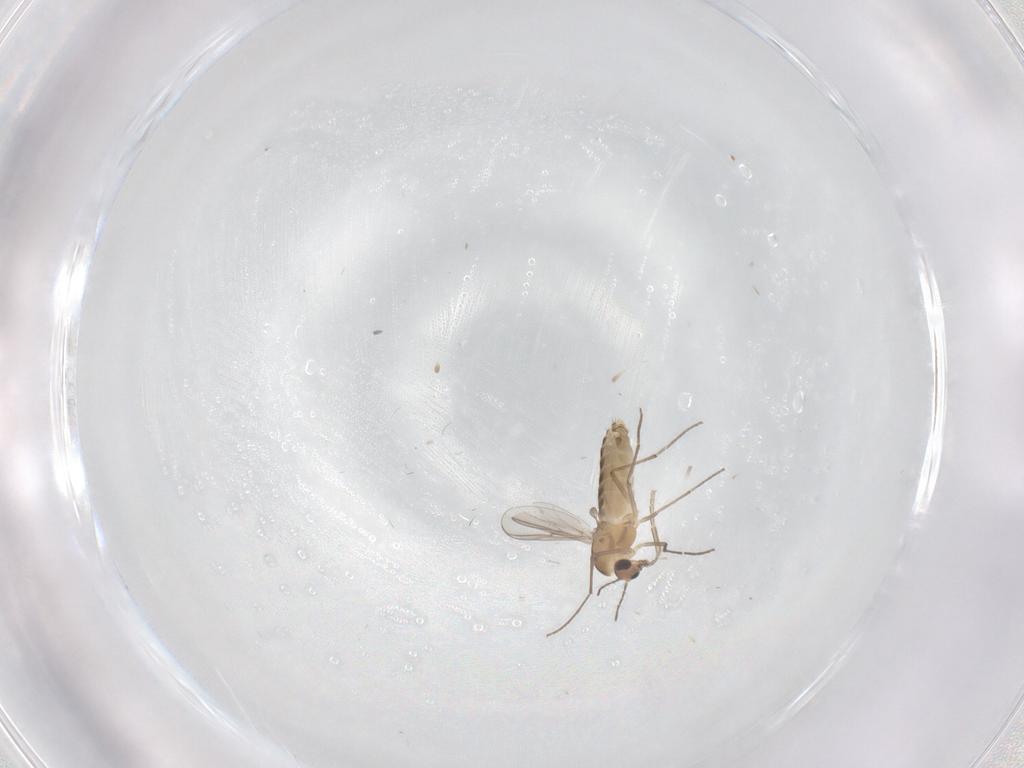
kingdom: Animalia
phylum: Arthropoda
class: Insecta
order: Diptera
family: Chironomidae
